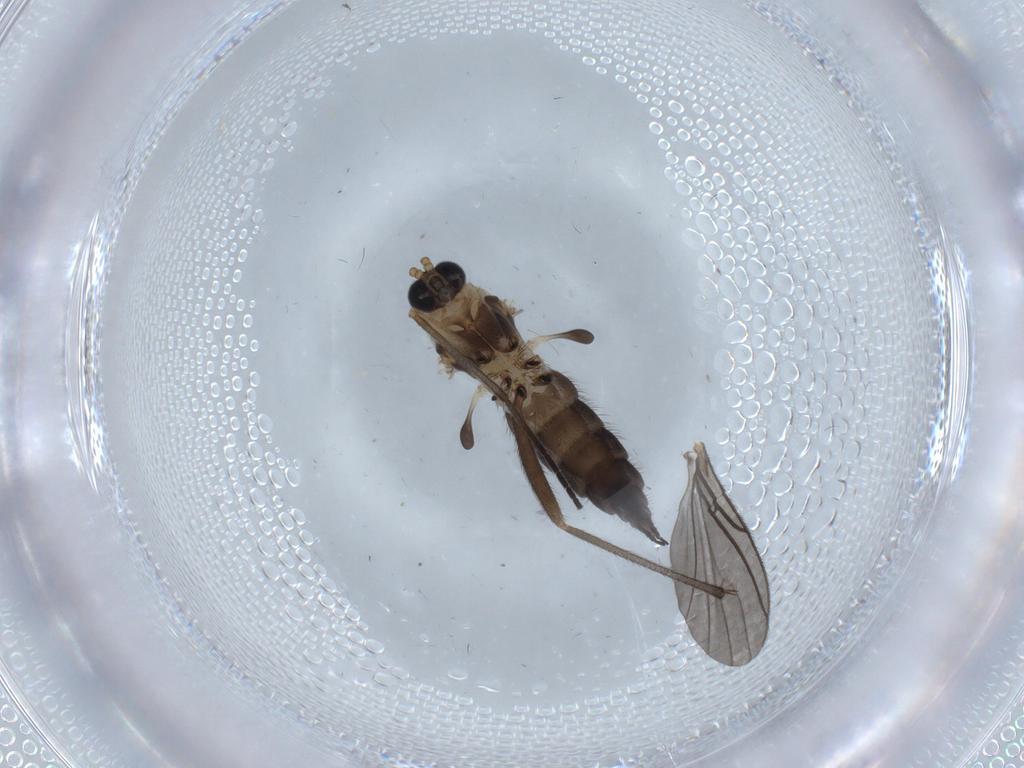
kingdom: Animalia
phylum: Arthropoda
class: Insecta
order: Diptera
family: Sciaridae
